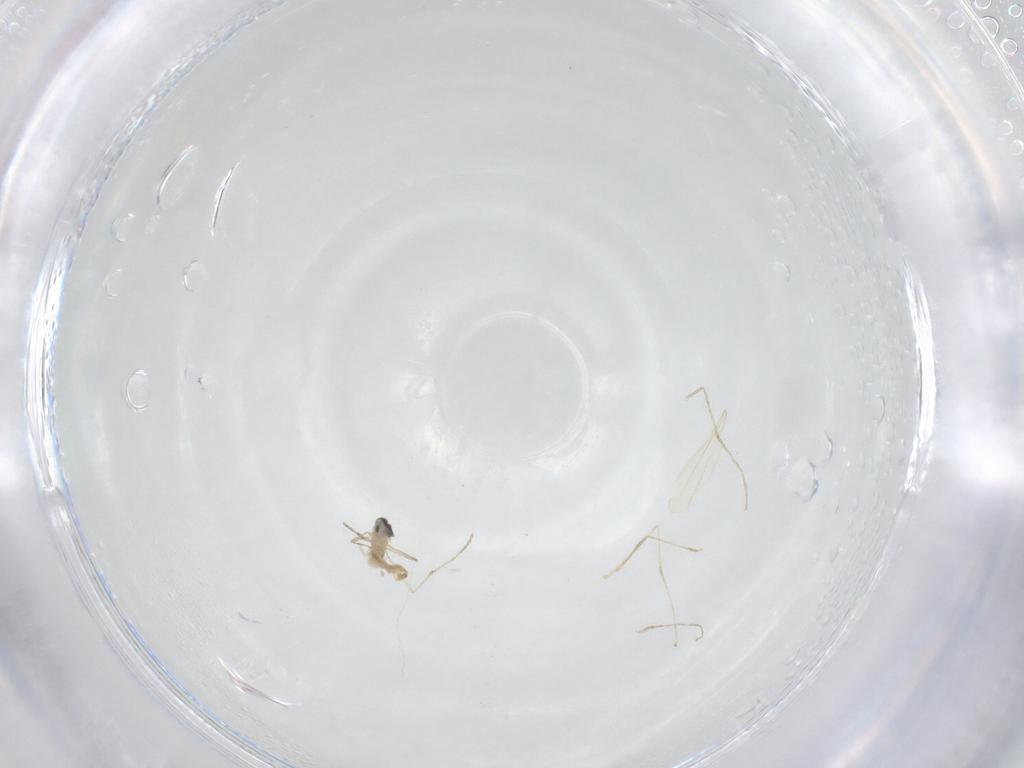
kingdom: Animalia
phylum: Arthropoda
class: Insecta
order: Diptera
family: Cecidomyiidae
